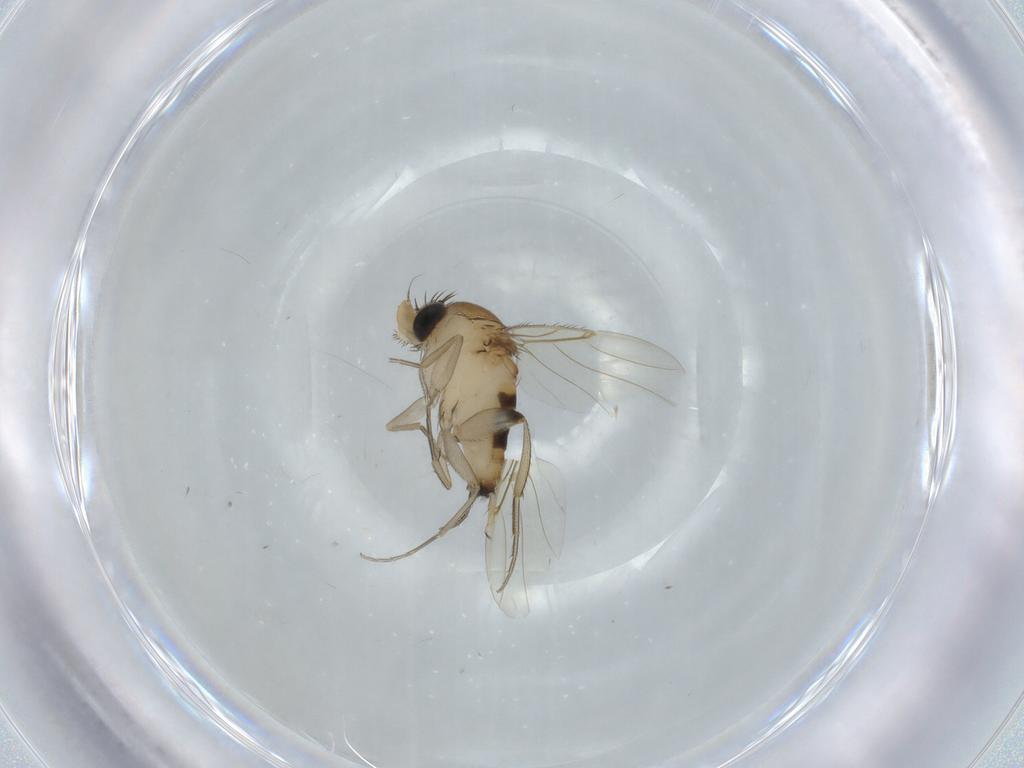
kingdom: Animalia
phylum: Arthropoda
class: Insecta
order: Diptera
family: Phoridae
